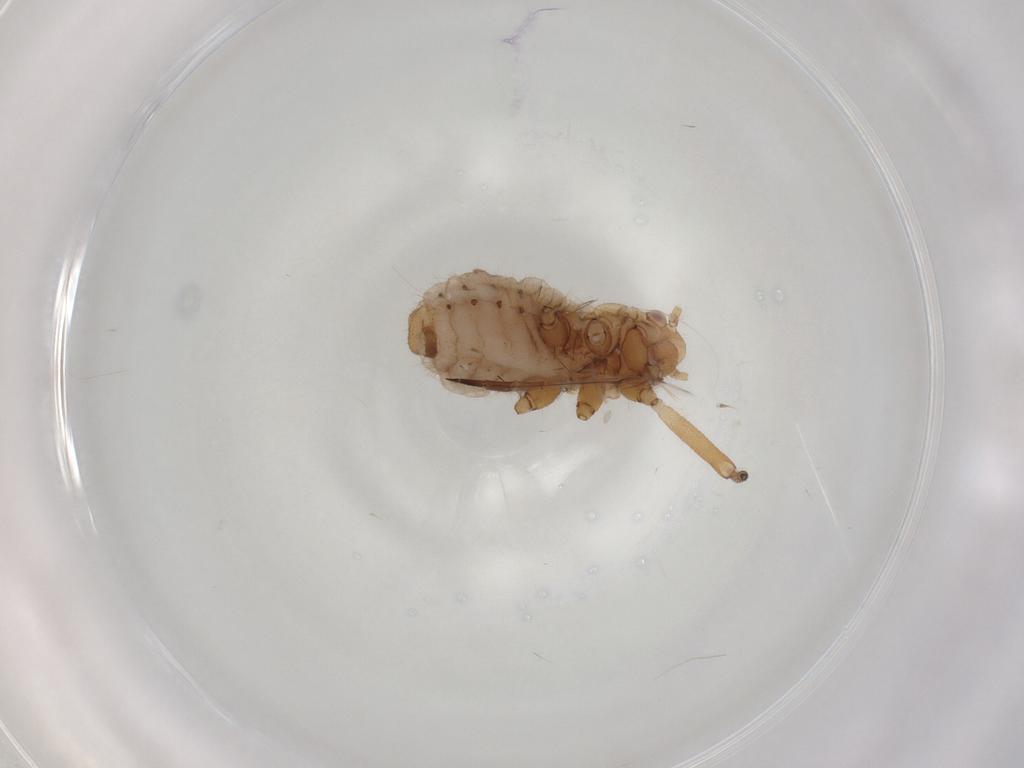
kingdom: Animalia
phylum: Arthropoda
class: Insecta
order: Hemiptera
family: Aphididae
